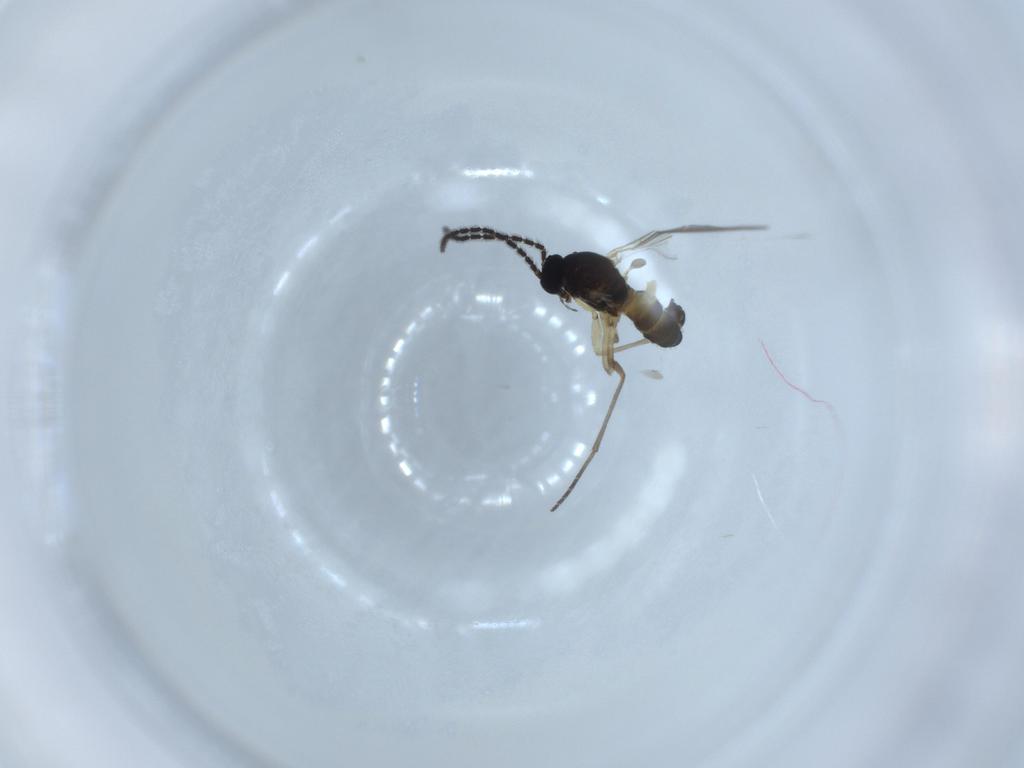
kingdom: Animalia
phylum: Arthropoda
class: Insecta
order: Diptera
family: Sciaridae
